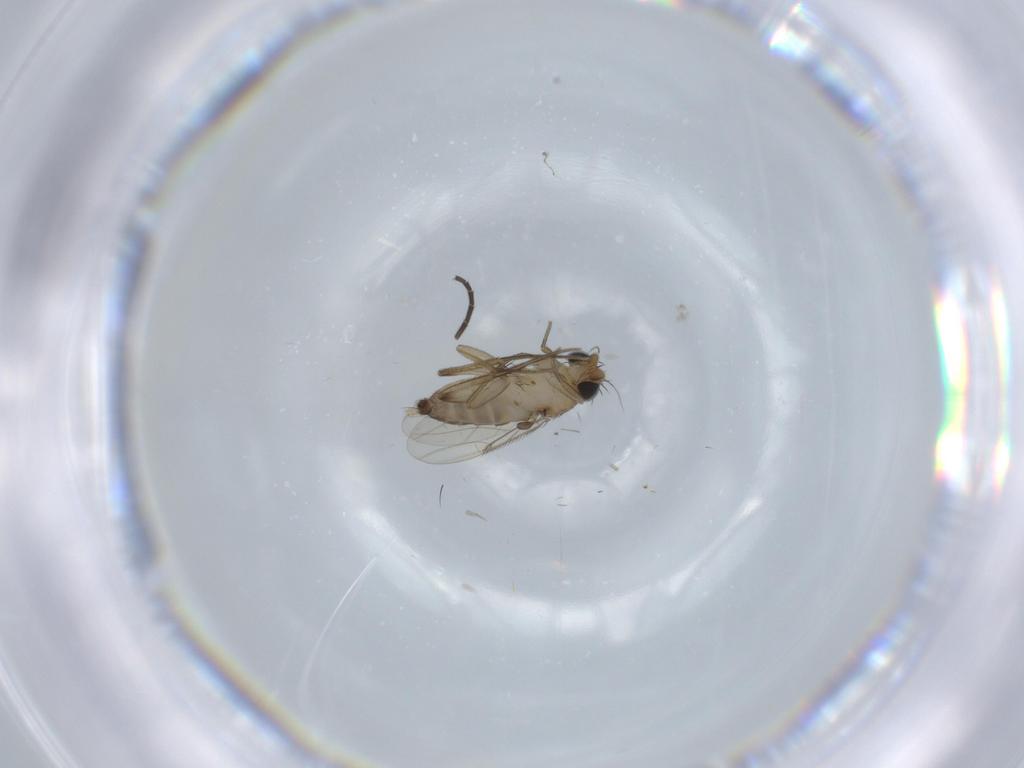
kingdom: Animalia
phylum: Arthropoda
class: Insecta
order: Diptera
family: Phoridae
